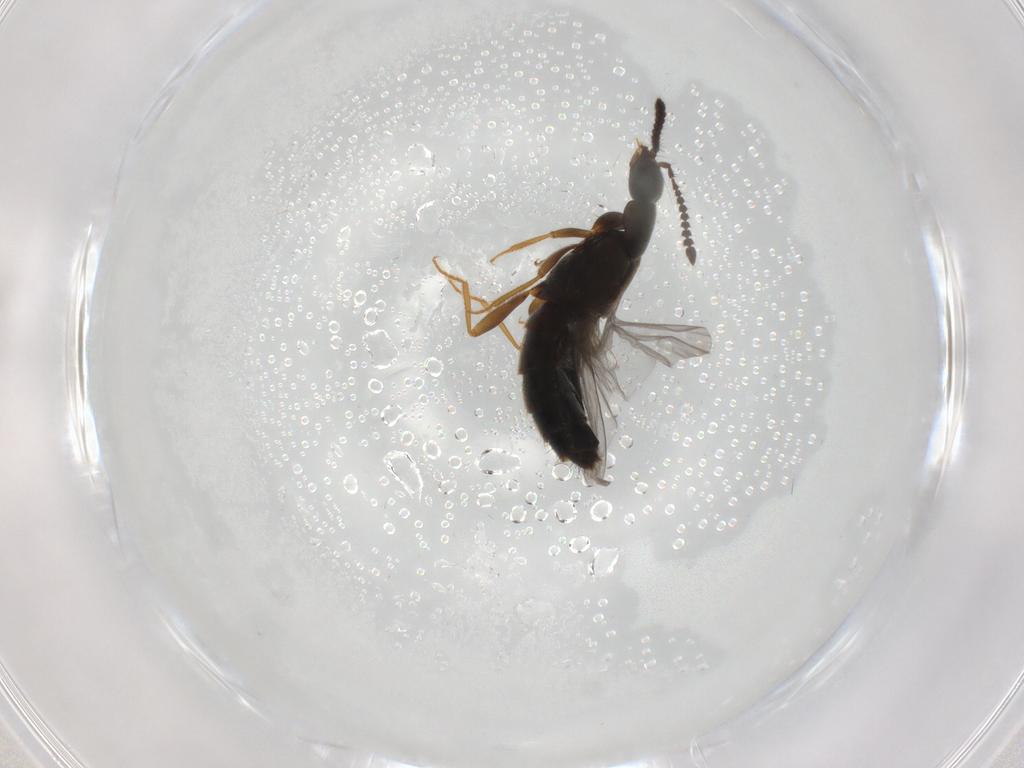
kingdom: Animalia
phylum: Arthropoda
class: Insecta
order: Coleoptera
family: Staphylinidae
